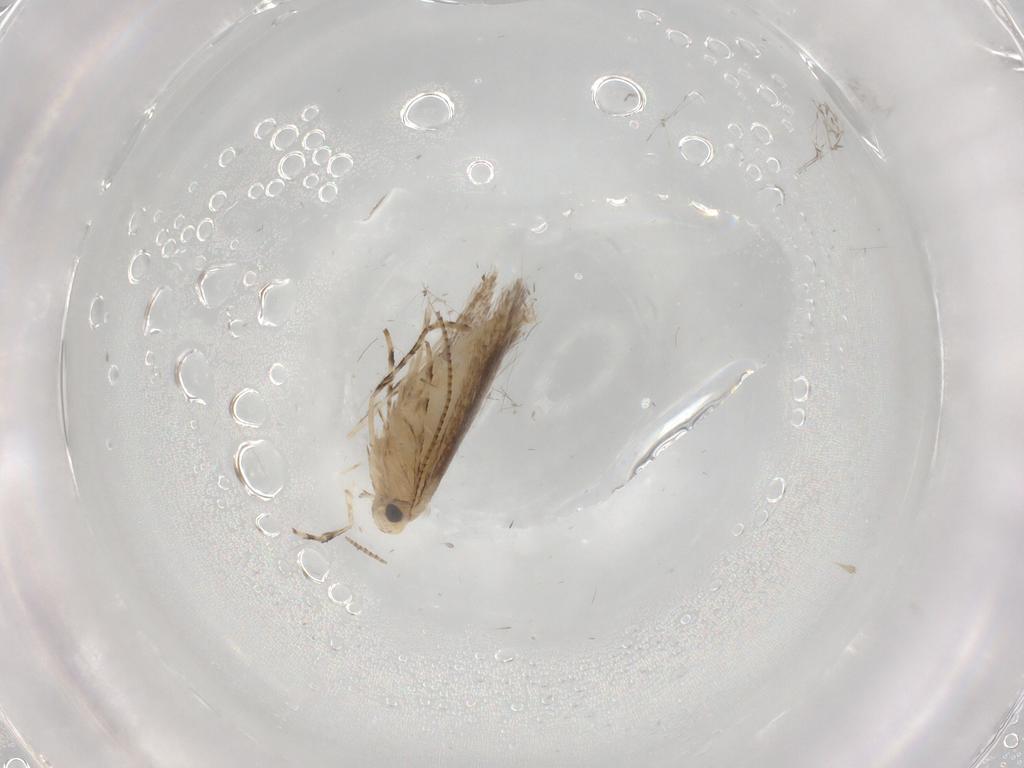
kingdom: Animalia
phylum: Arthropoda
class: Insecta
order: Lepidoptera
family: Gracillariidae
